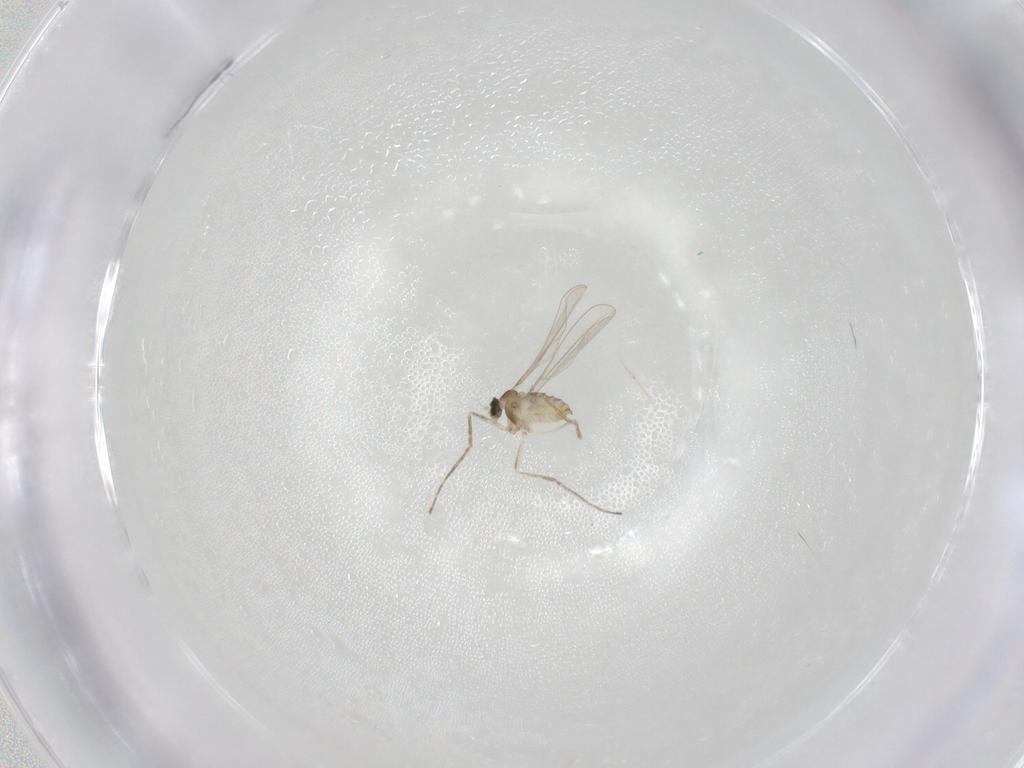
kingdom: Animalia
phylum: Arthropoda
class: Insecta
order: Diptera
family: Cecidomyiidae
